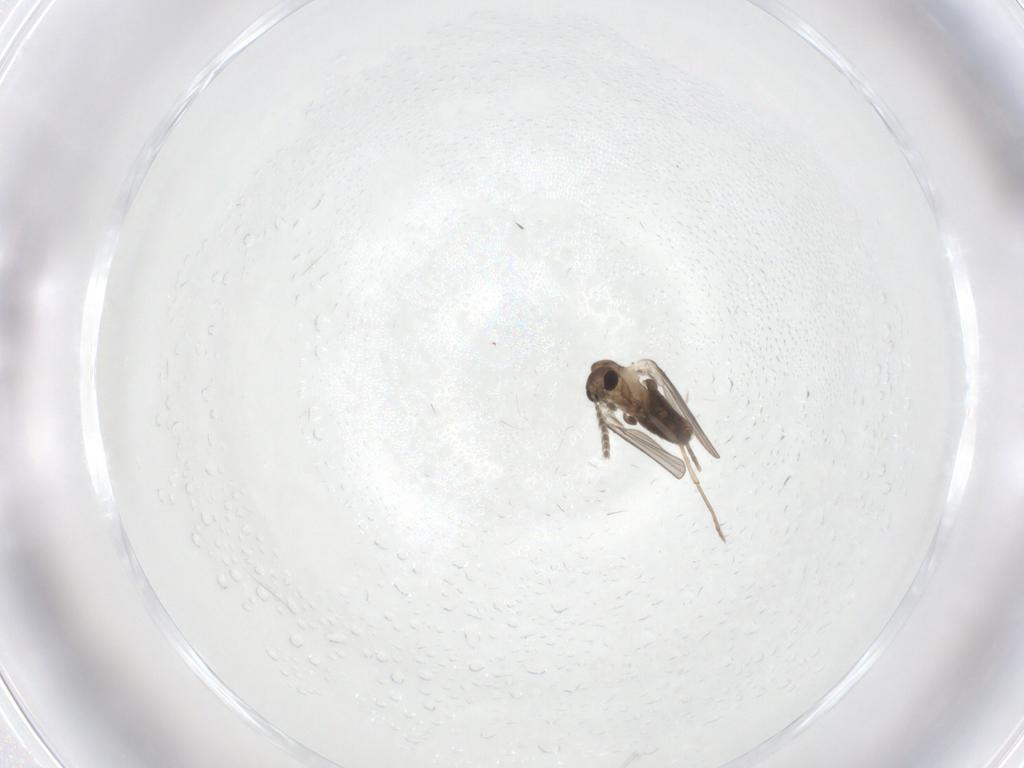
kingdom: Animalia
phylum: Arthropoda
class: Insecta
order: Diptera
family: Psychodidae
